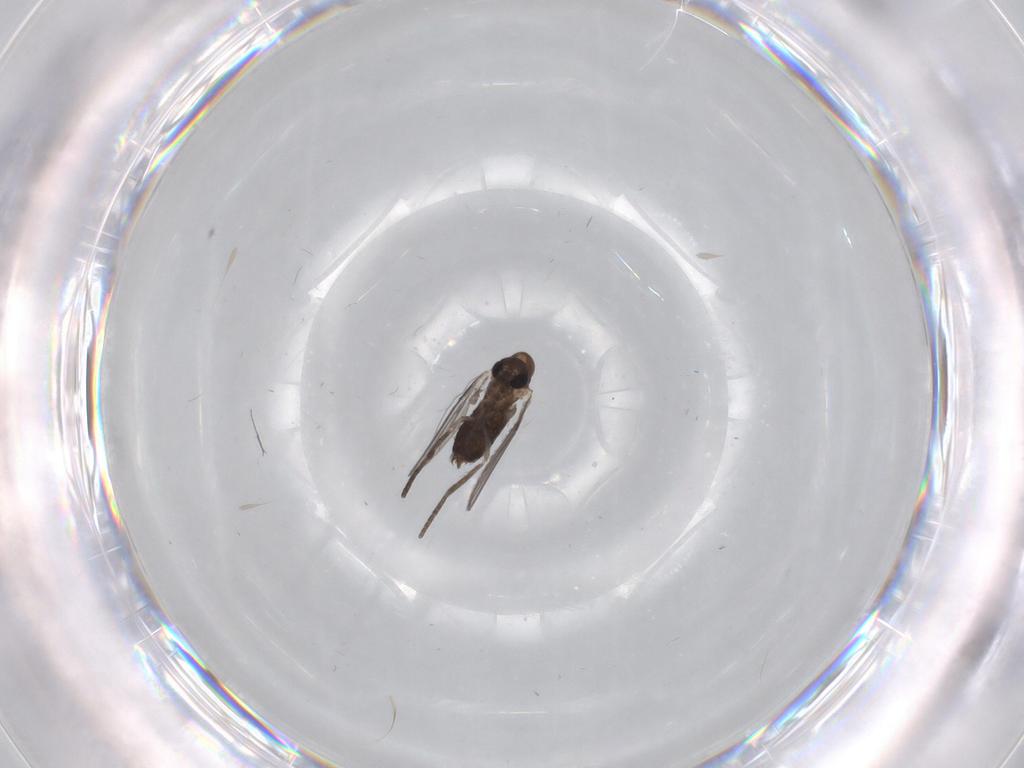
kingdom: Animalia
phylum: Arthropoda
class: Insecta
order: Diptera
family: Psychodidae
